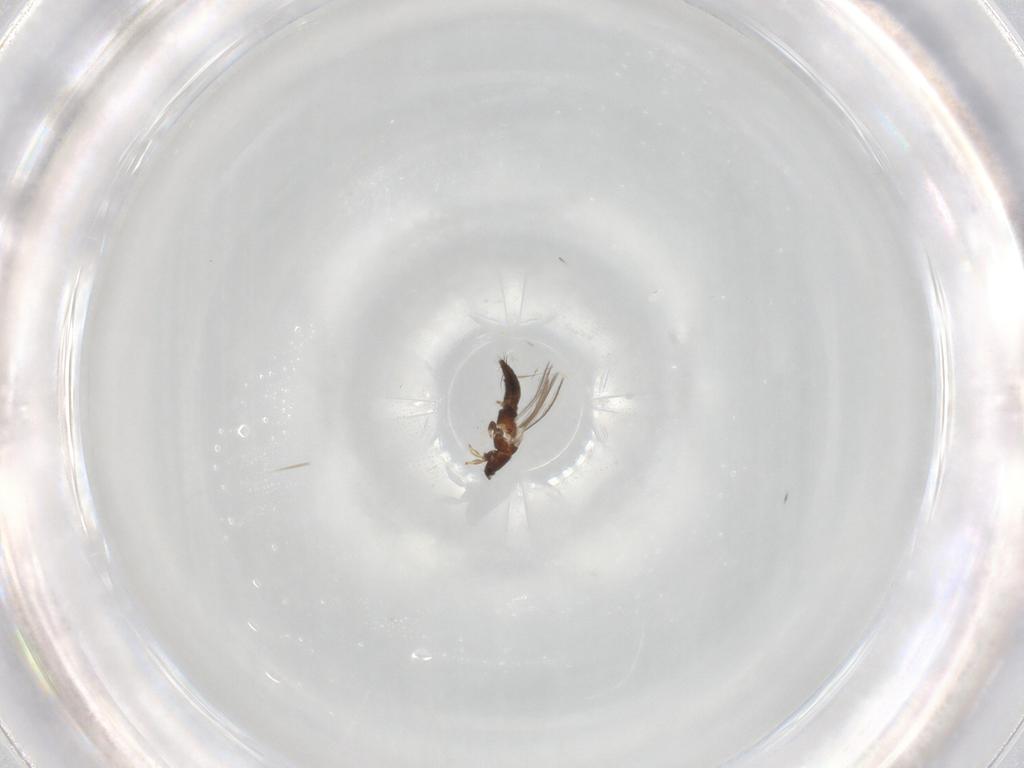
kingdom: Animalia
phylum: Arthropoda
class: Insecta
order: Thysanoptera
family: Thripidae
